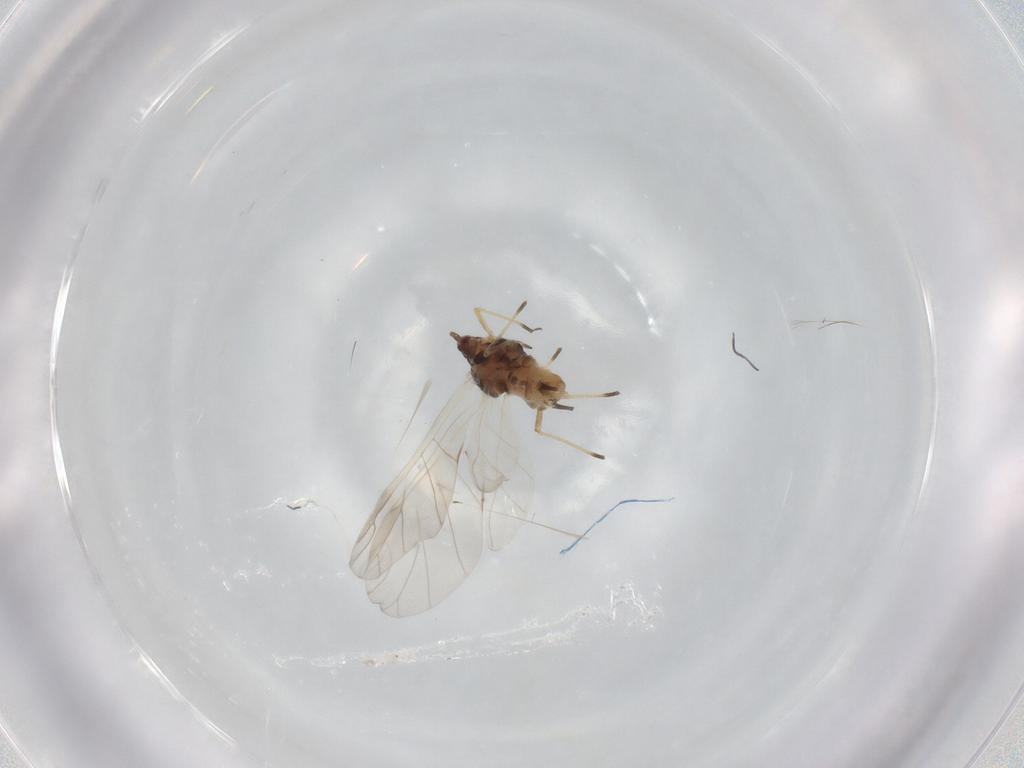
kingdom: Animalia
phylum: Arthropoda
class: Insecta
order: Hemiptera
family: Aphididae
